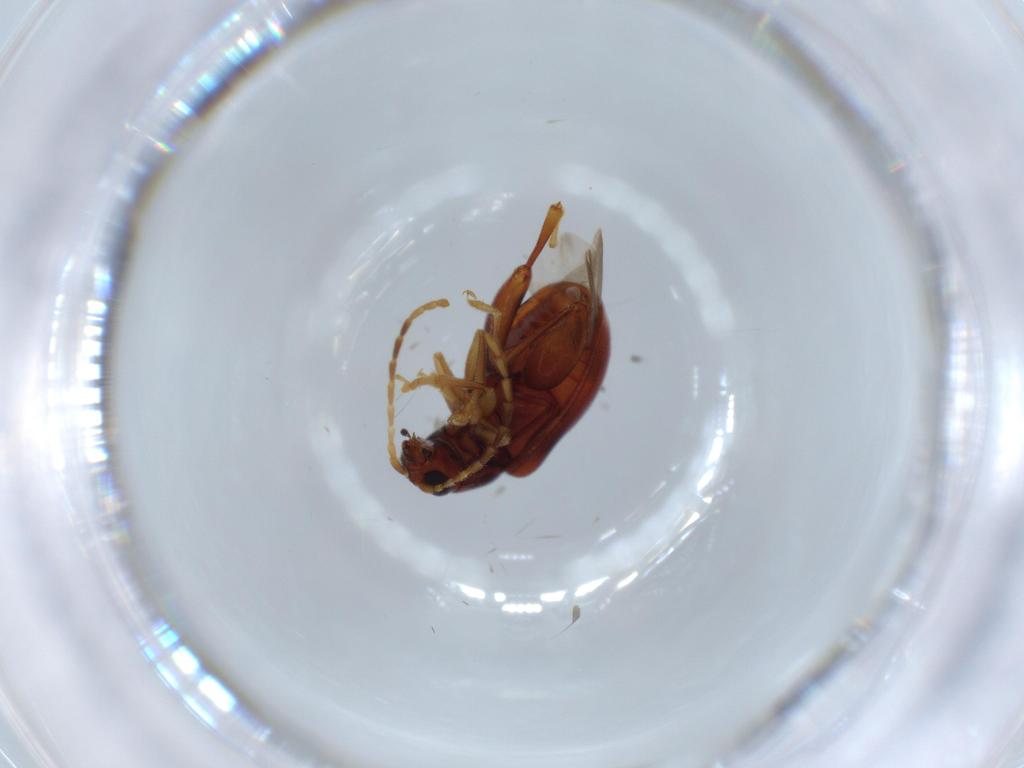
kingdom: Animalia
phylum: Arthropoda
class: Insecta
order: Coleoptera
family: Chrysomelidae
